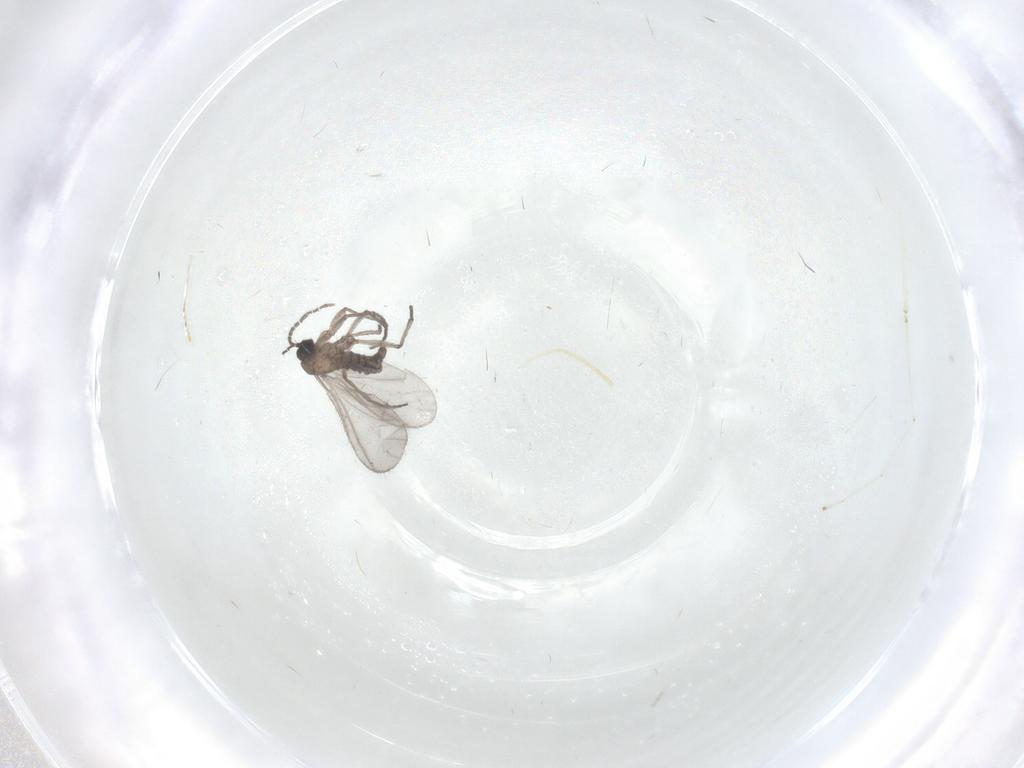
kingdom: Animalia
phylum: Arthropoda
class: Insecta
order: Diptera
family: Sciaridae
